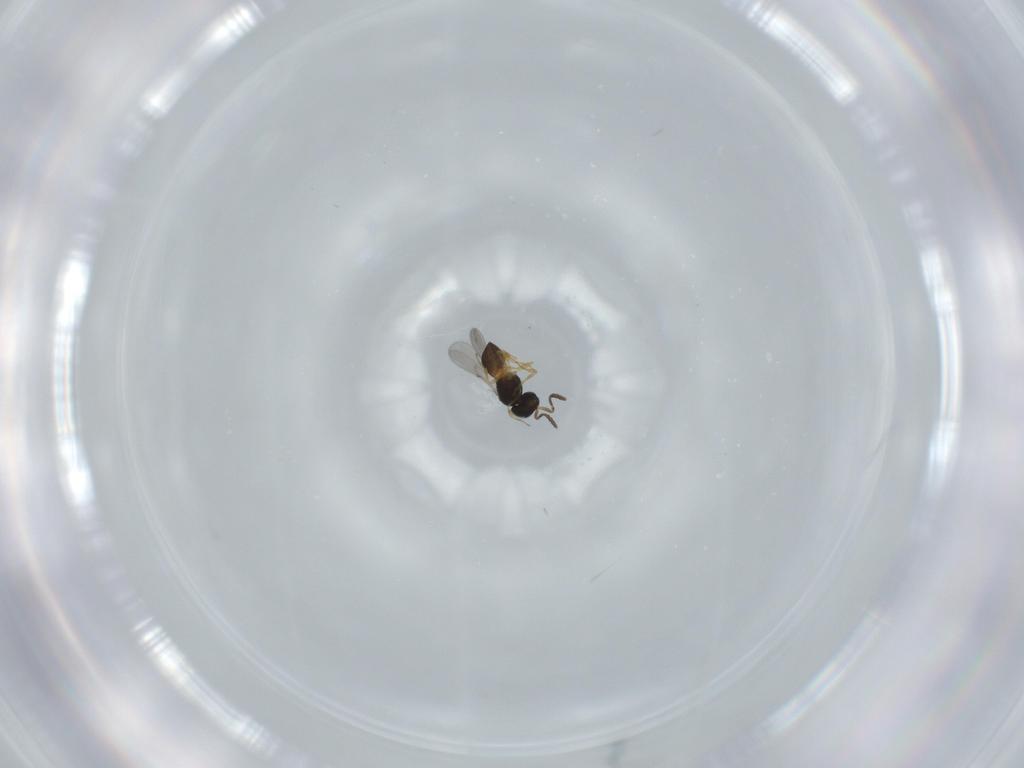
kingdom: Animalia
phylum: Arthropoda
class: Insecta
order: Hymenoptera
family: Scelionidae
